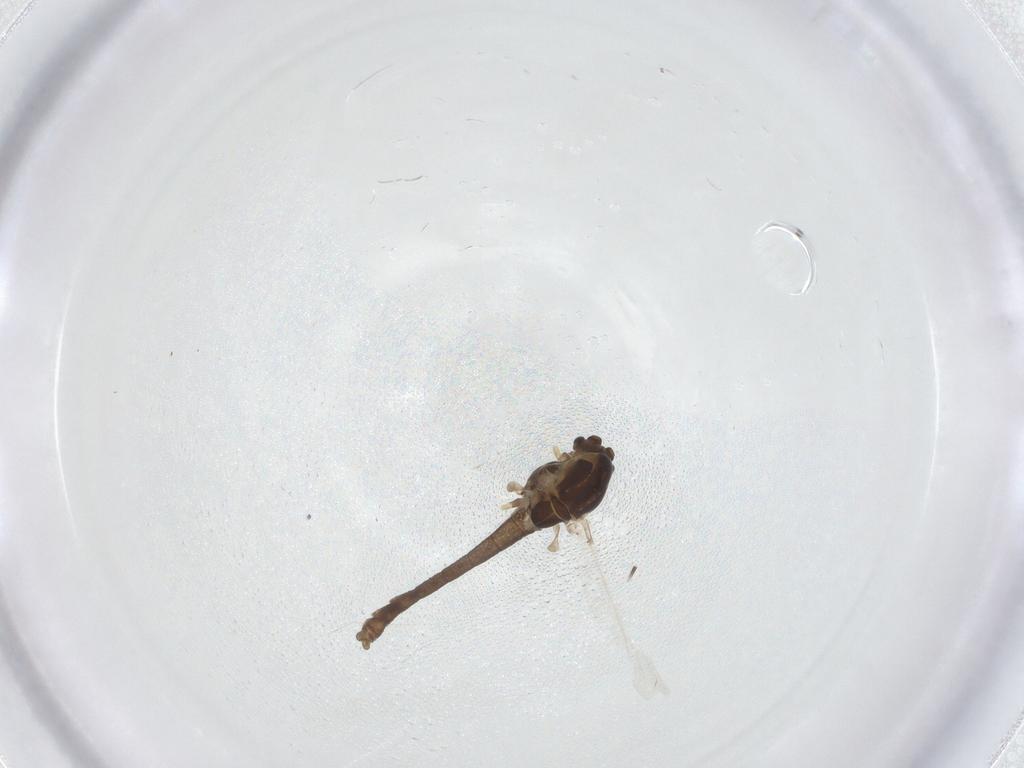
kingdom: Animalia
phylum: Arthropoda
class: Insecta
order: Diptera
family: Chironomidae
